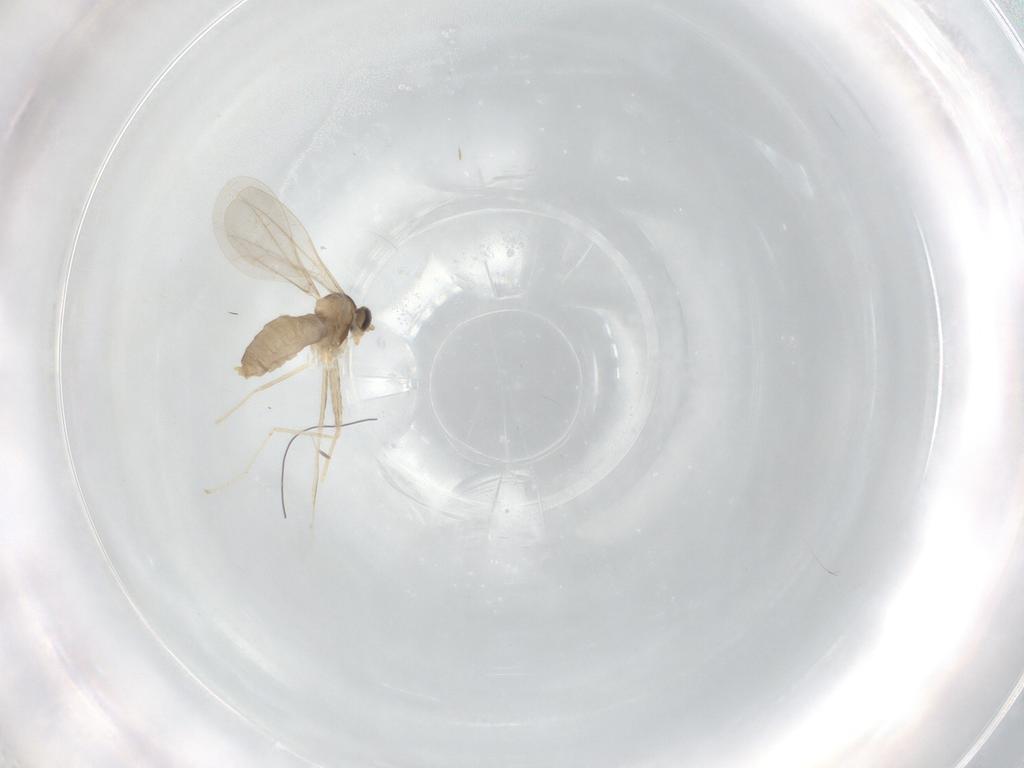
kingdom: Animalia
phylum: Arthropoda
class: Insecta
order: Diptera
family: Cecidomyiidae
